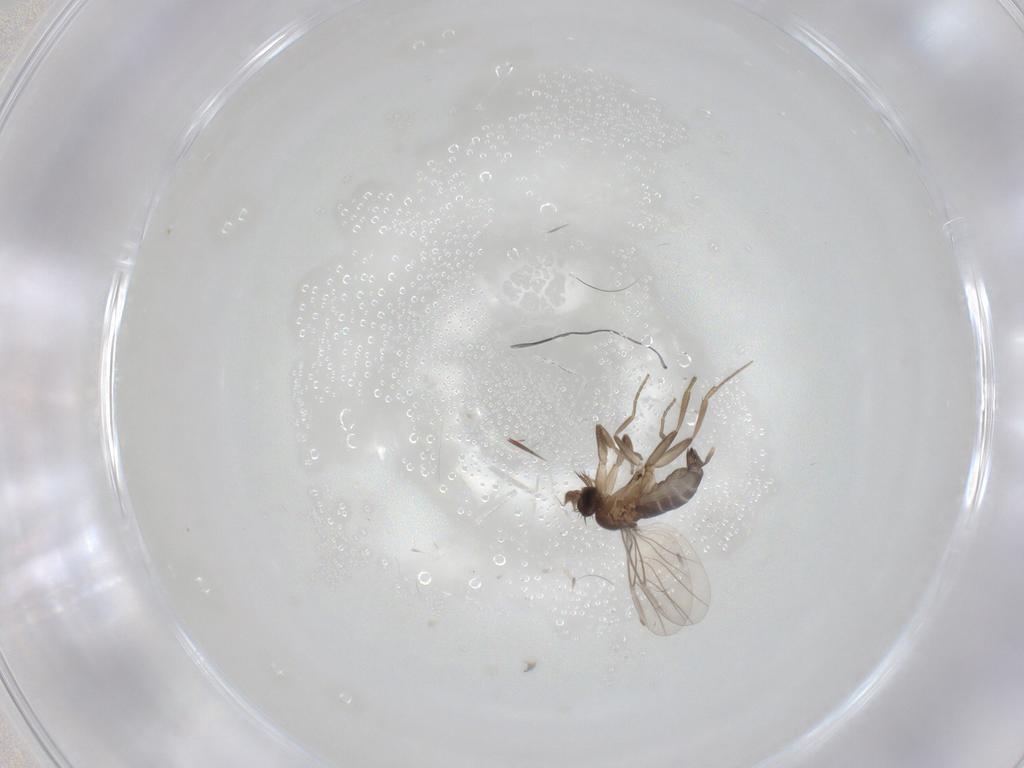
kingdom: Animalia
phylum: Arthropoda
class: Insecta
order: Diptera
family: Phoridae
